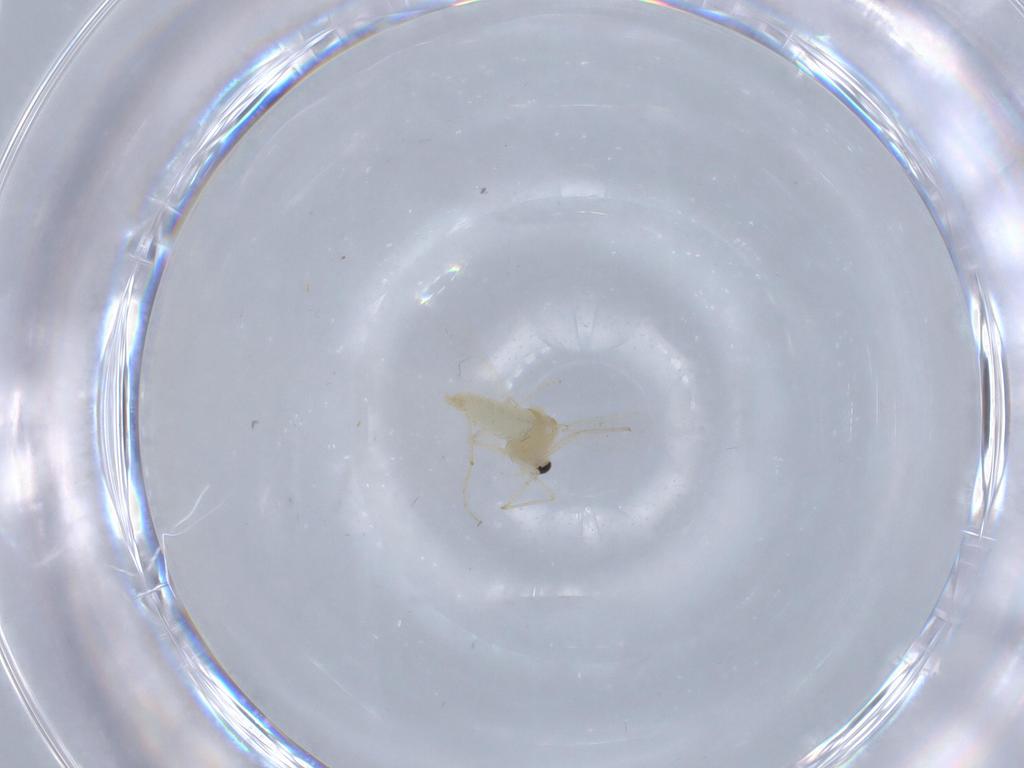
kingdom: Animalia
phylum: Arthropoda
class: Insecta
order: Diptera
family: Chironomidae
